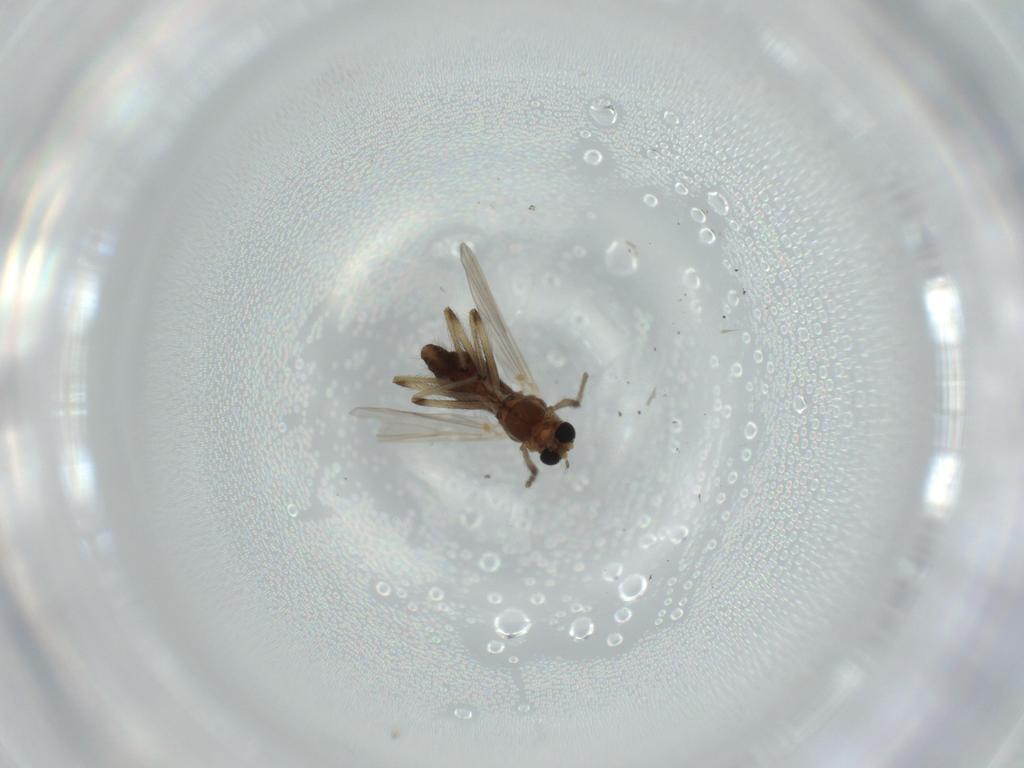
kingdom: Animalia
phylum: Arthropoda
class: Insecta
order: Diptera
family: Chironomidae
